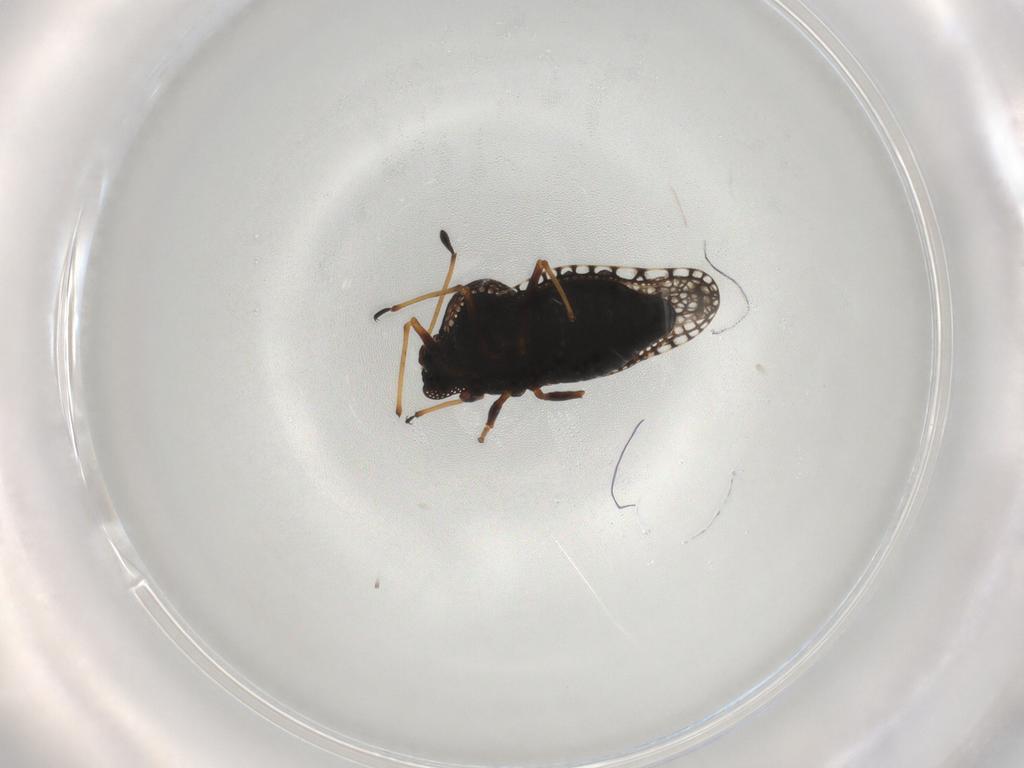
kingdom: Animalia
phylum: Arthropoda
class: Insecta
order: Hemiptera
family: Tingidae
